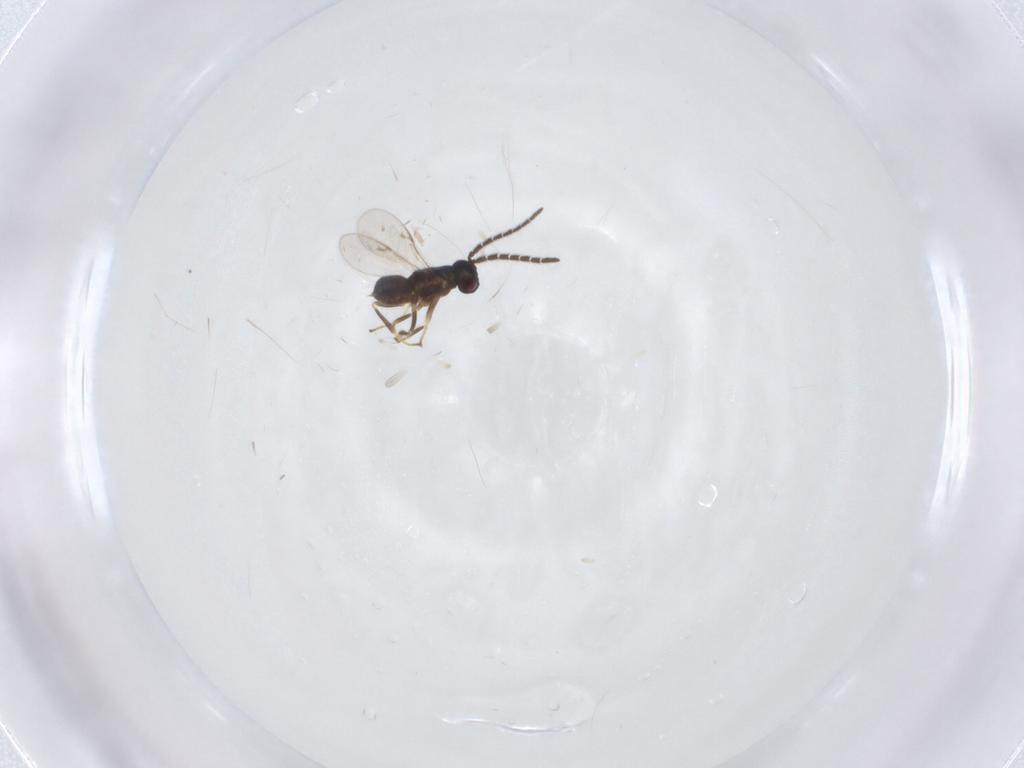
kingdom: Animalia
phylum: Arthropoda
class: Insecta
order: Hymenoptera
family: Encyrtidae
